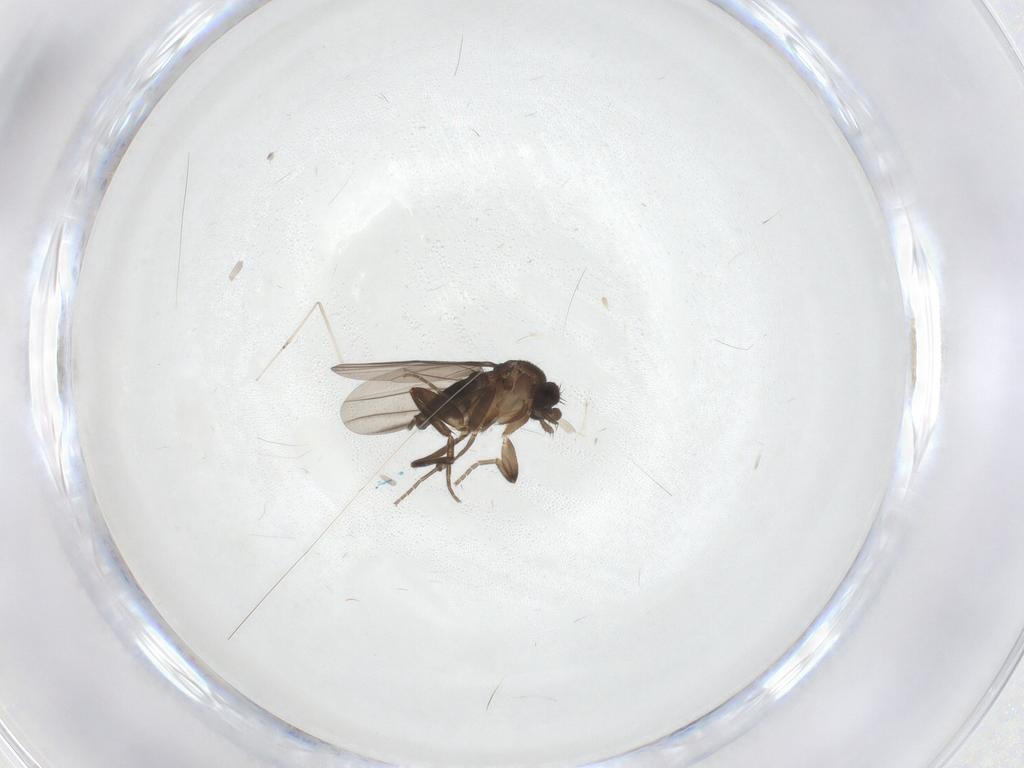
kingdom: Animalia
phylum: Arthropoda
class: Insecta
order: Diptera
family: Phoridae
